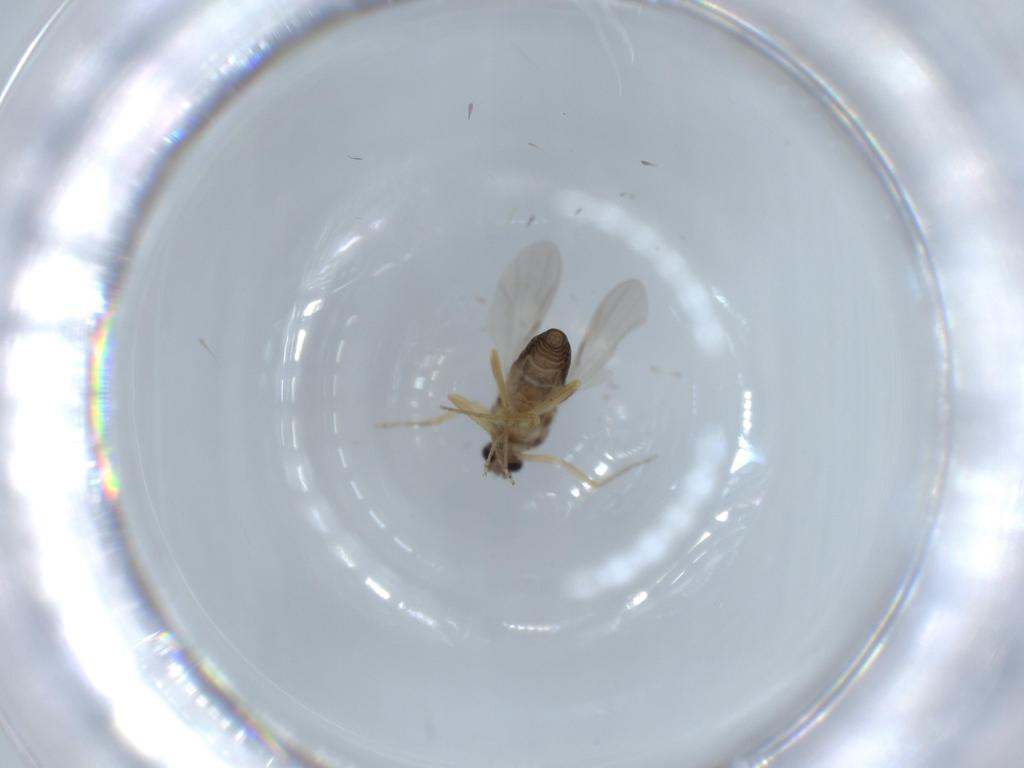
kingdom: Animalia
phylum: Arthropoda
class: Insecta
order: Diptera
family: Ceratopogonidae
